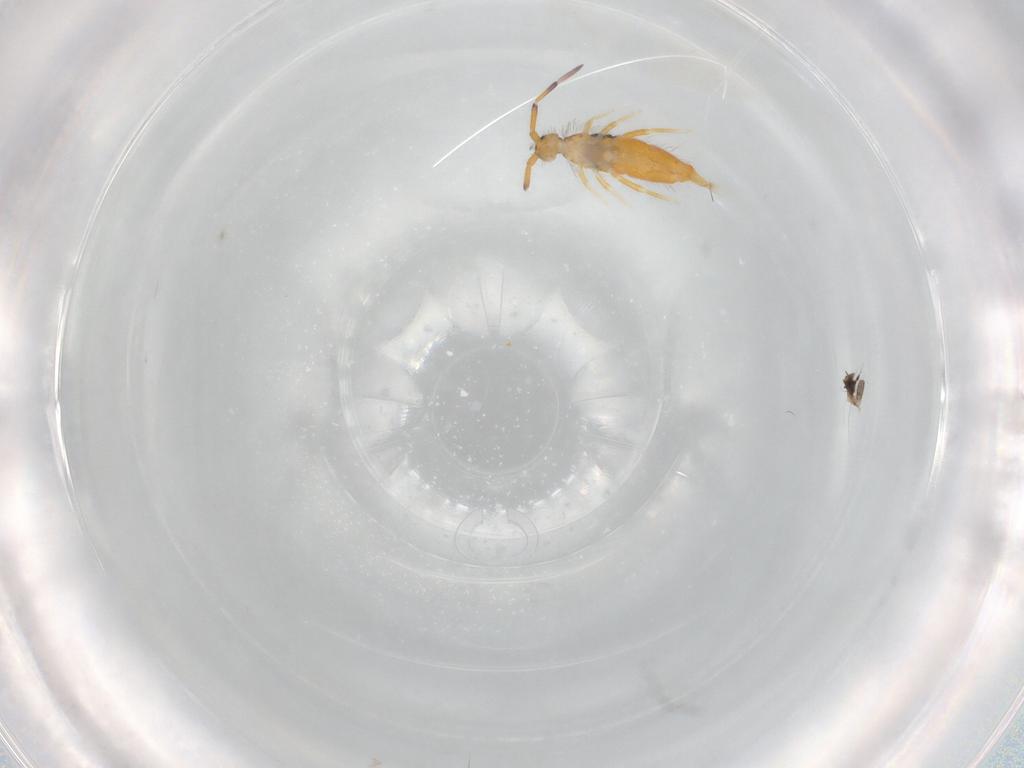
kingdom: Animalia
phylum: Arthropoda
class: Collembola
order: Entomobryomorpha
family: Entomobryidae
